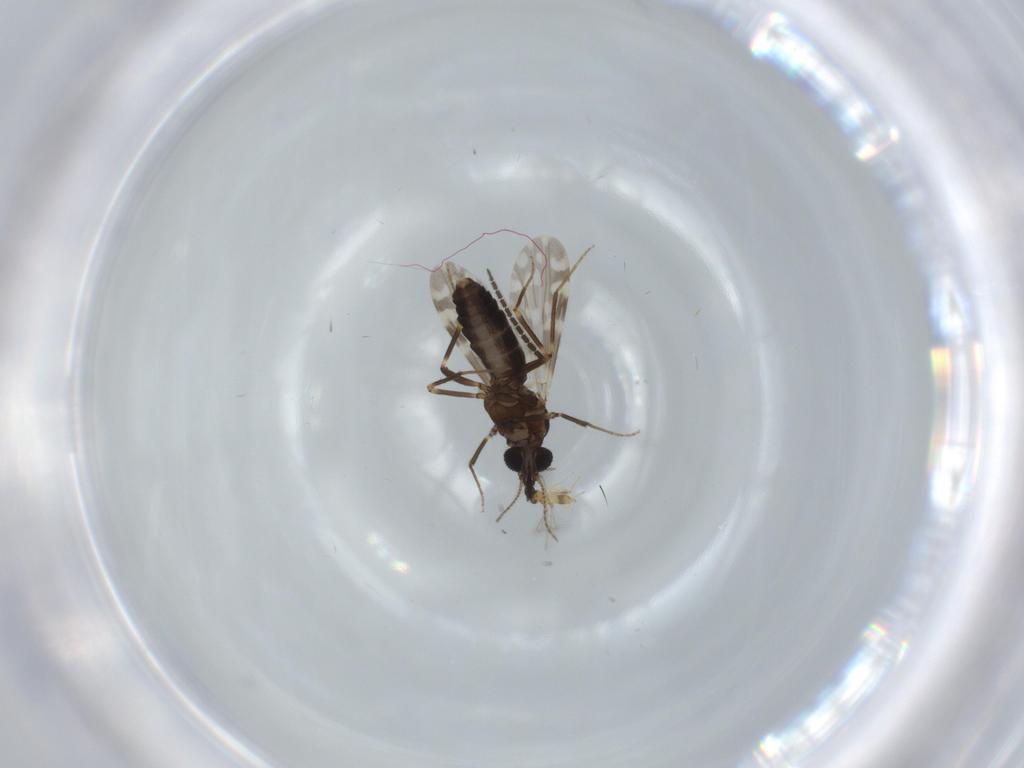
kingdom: Animalia
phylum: Arthropoda
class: Insecta
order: Diptera
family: Ceratopogonidae
